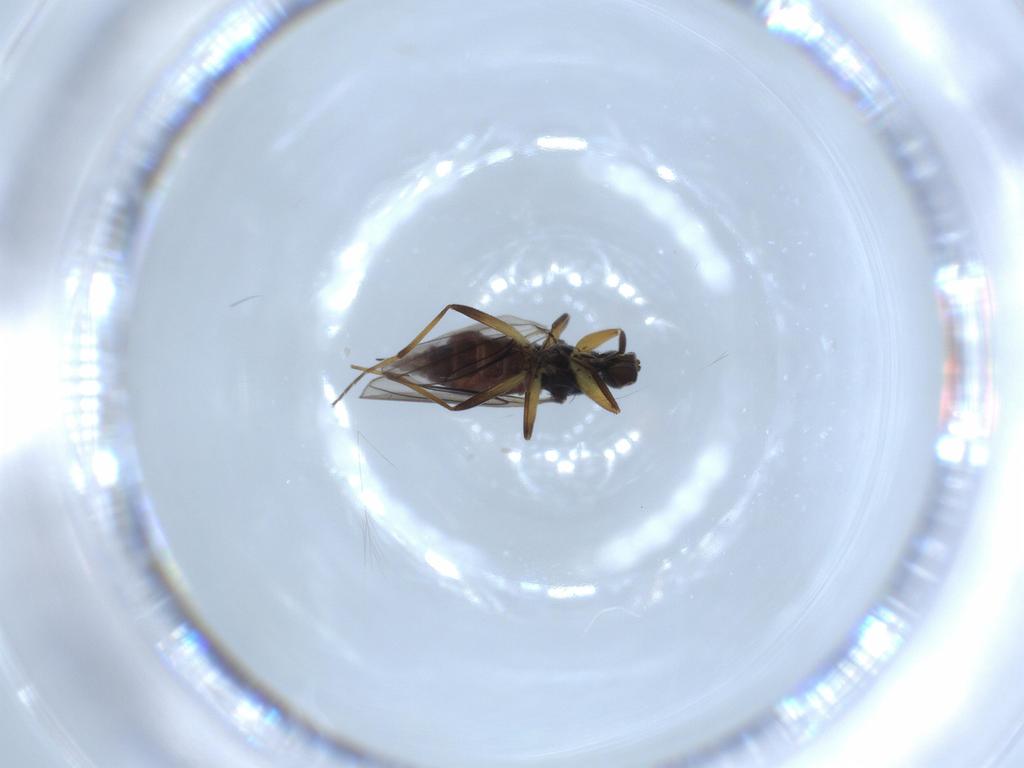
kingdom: Animalia
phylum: Arthropoda
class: Insecta
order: Diptera
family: Hybotidae
